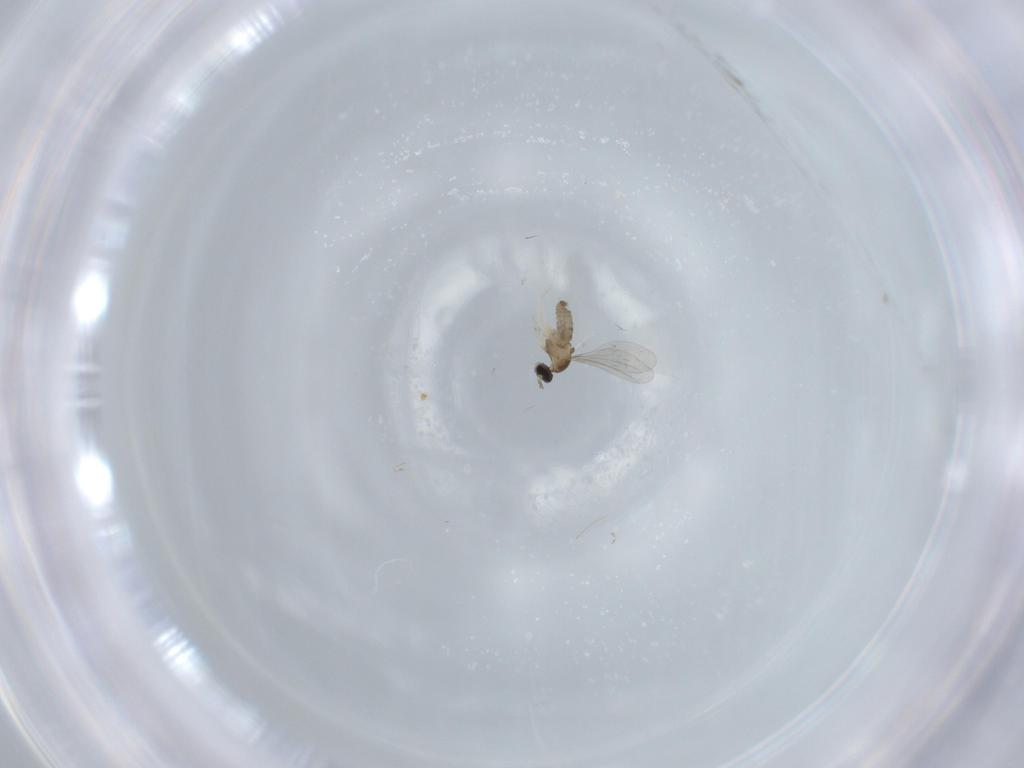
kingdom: Animalia
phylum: Arthropoda
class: Insecta
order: Diptera
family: Cecidomyiidae
